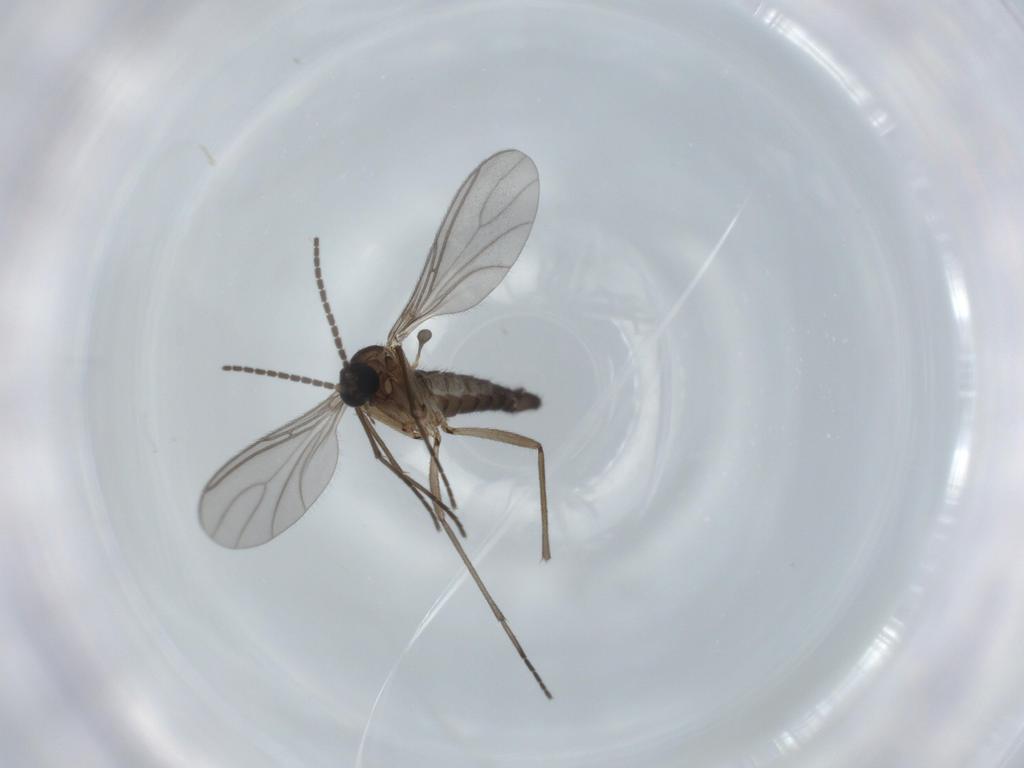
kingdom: Animalia
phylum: Arthropoda
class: Insecta
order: Diptera
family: Sciaridae
